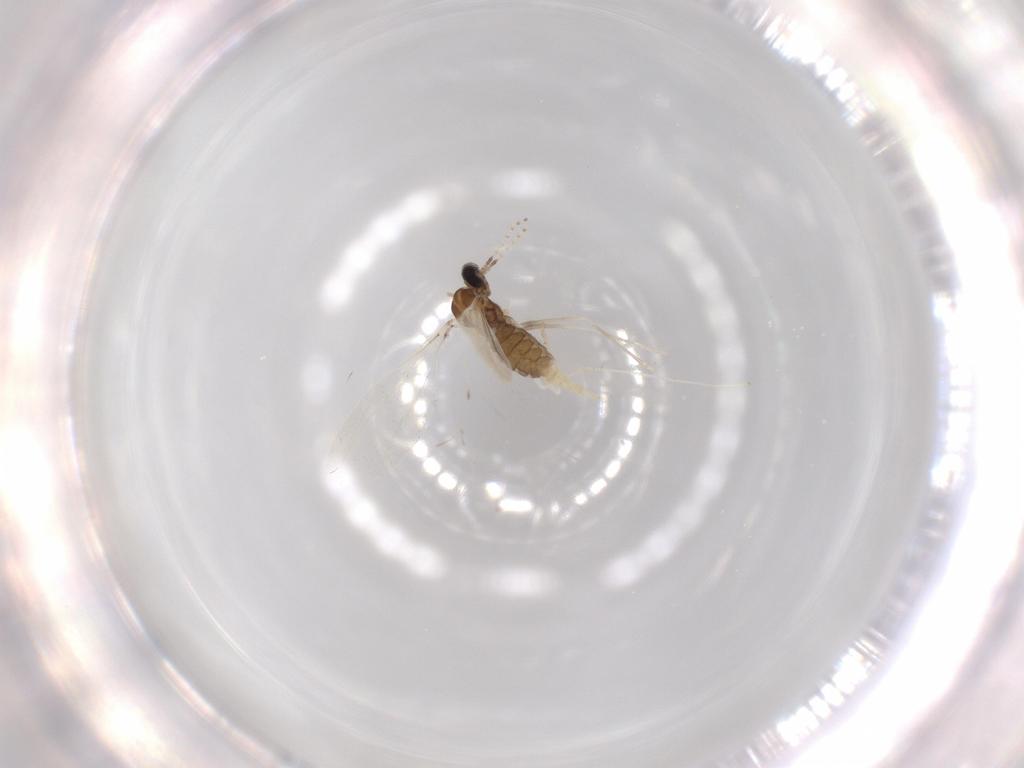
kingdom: Animalia
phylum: Arthropoda
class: Insecta
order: Diptera
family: Cecidomyiidae
